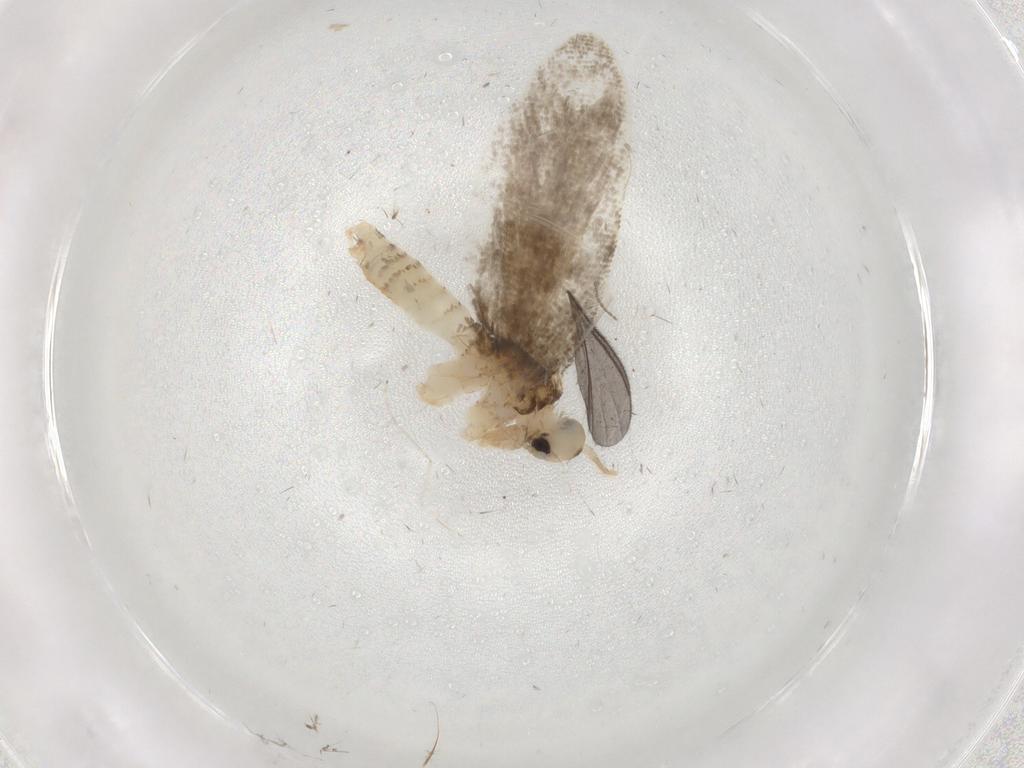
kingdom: Animalia
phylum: Arthropoda
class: Insecta
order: Lepidoptera
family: Psychidae
